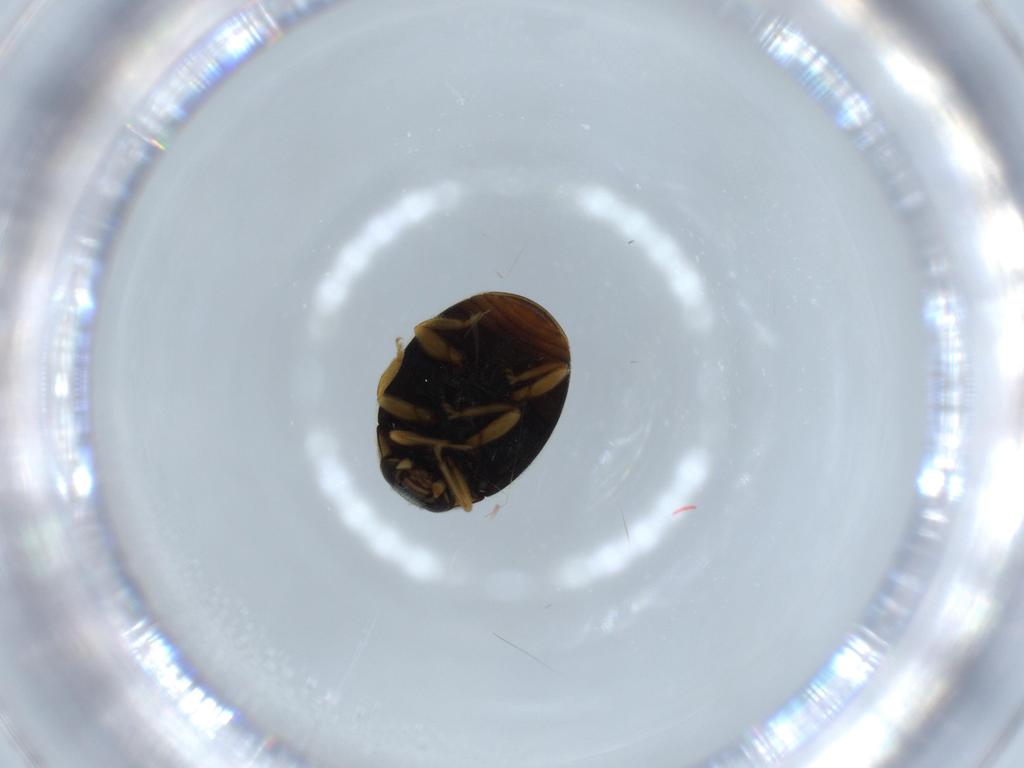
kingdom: Animalia
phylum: Arthropoda
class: Insecta
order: Coleoptera
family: Coccinellidae
